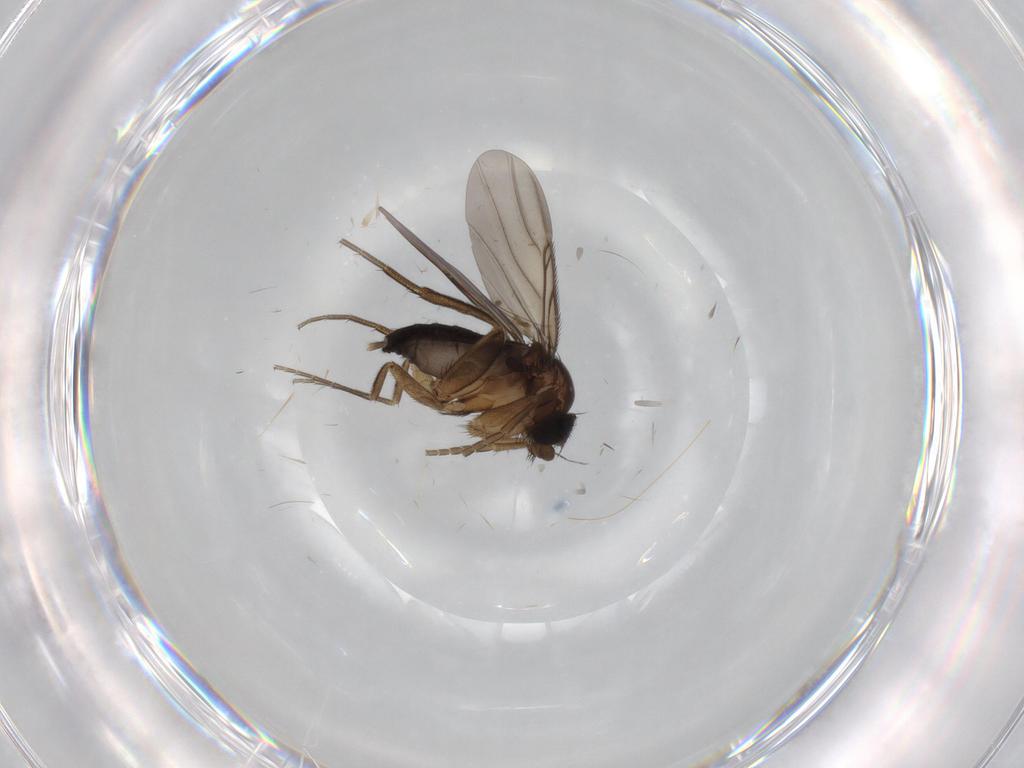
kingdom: Animalia
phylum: Arthropoda
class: Insecta
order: Diptera
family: Phoridae
